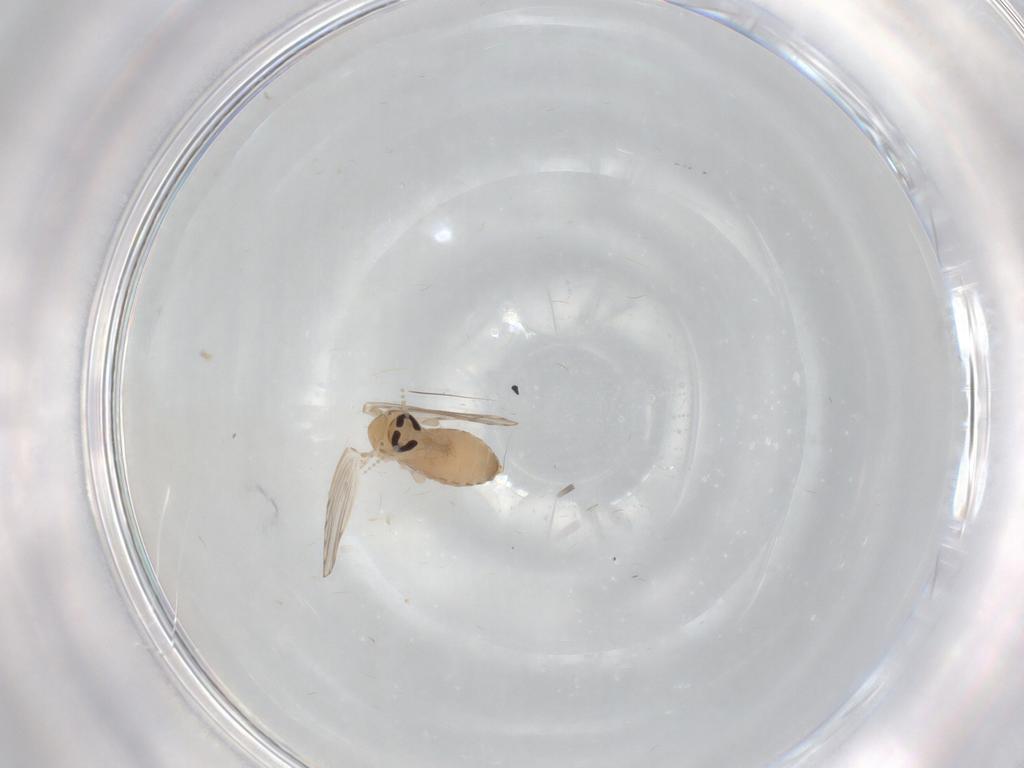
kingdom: Animalia
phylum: Arthropoda
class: Insecta
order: Diptera
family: Psychodidae
